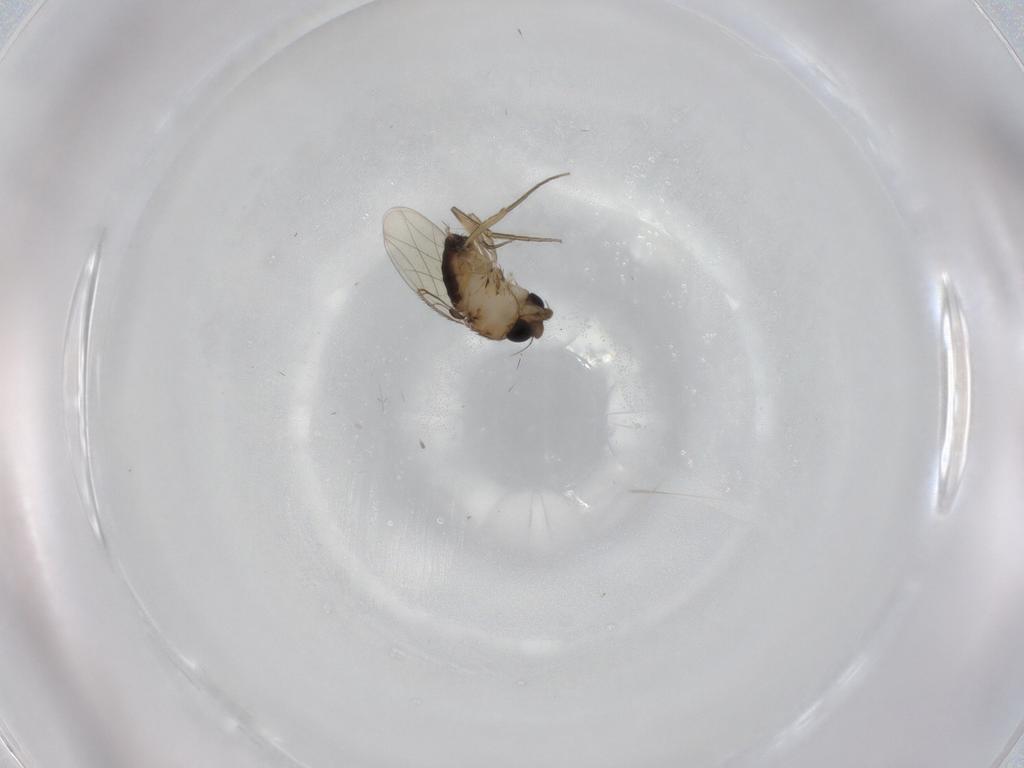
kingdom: Animalia
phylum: Arthropoda
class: Insecta
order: Diptera
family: Phoridae
